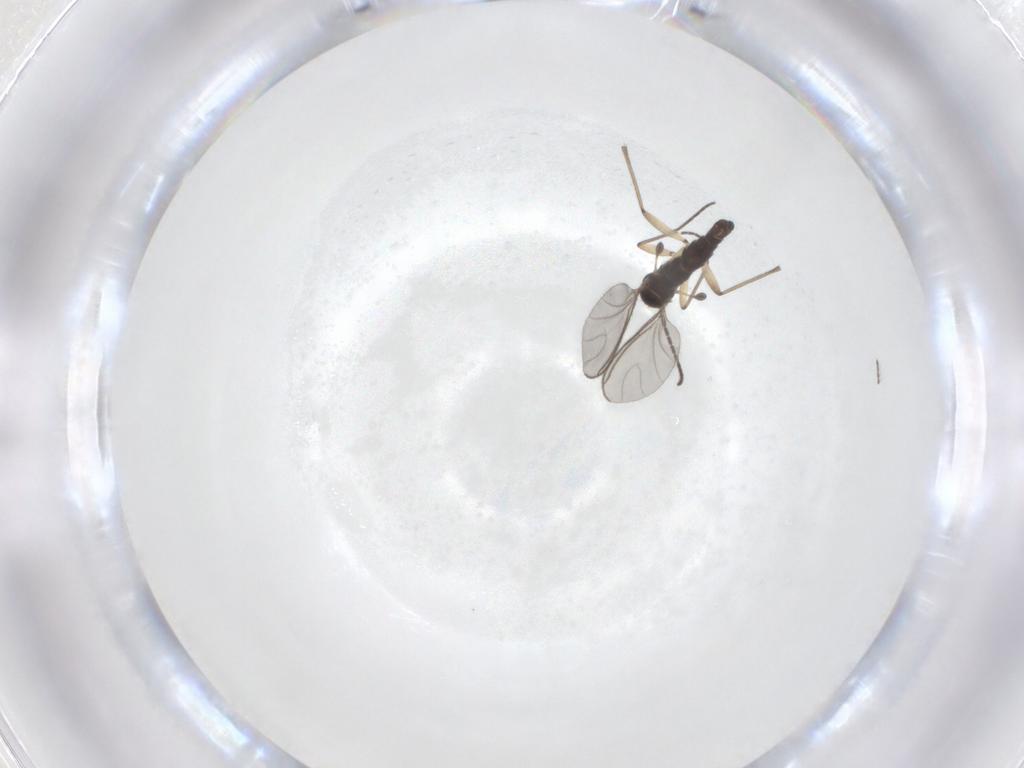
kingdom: Animalia
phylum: Arthropoda
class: Insecta
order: Diptera
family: Sciaridae
